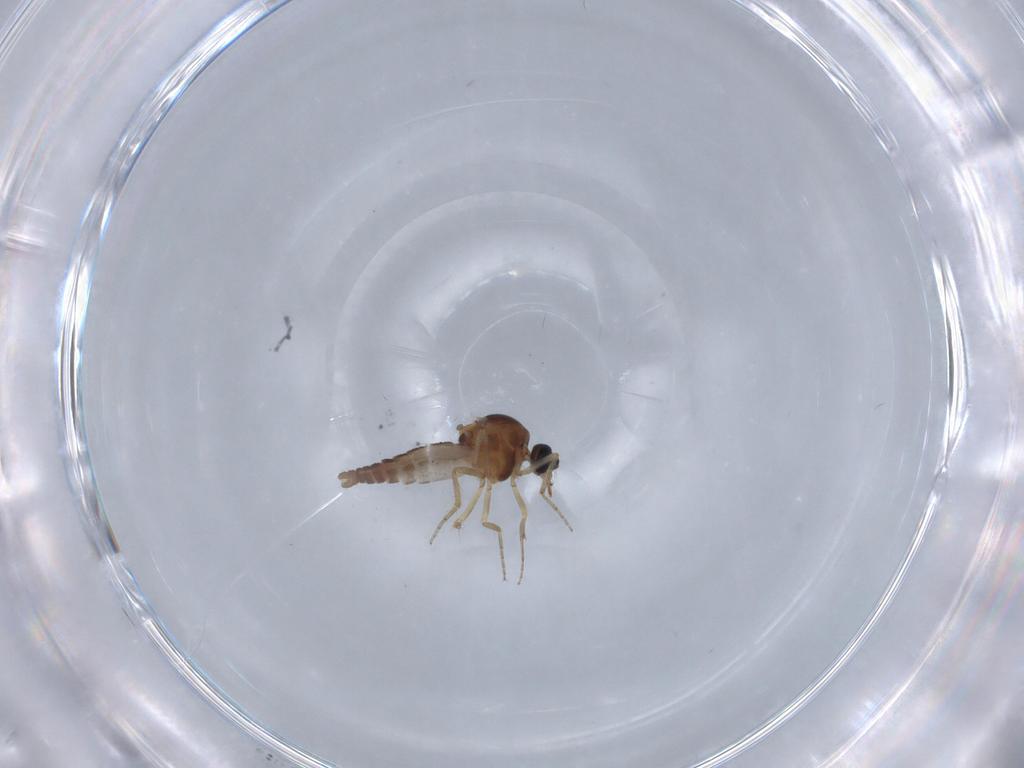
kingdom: Animalia
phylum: Arthropoda
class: Insecta
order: Diptera
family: Ceratopogonidae
